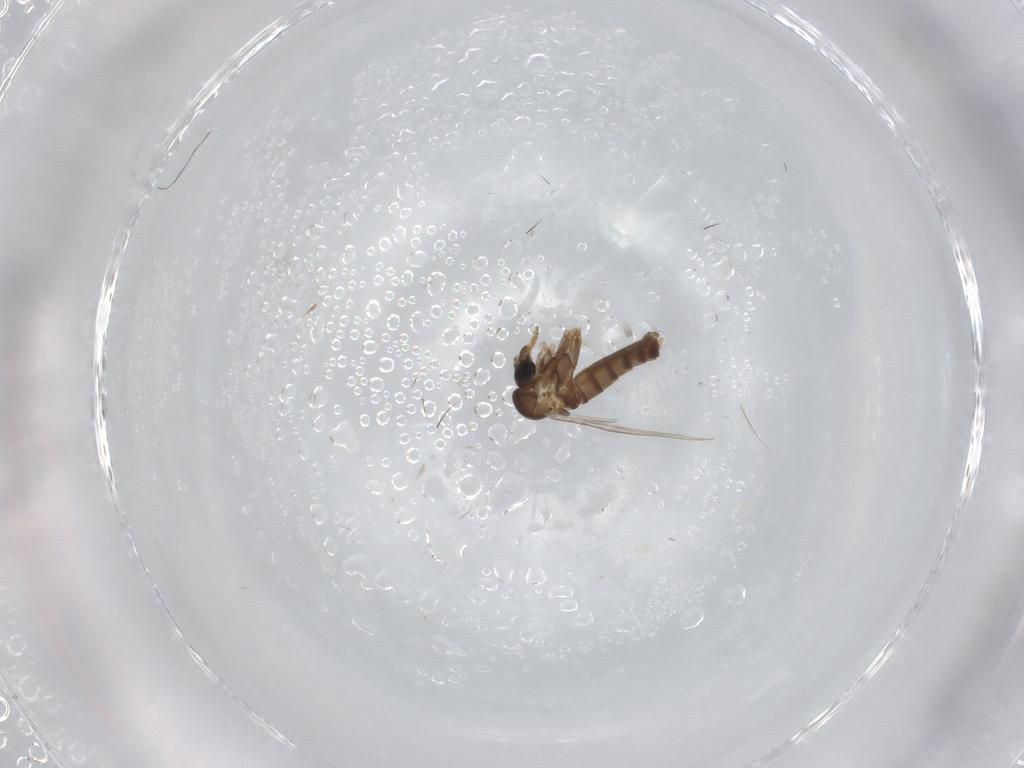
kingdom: Animalia
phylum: Arthropoda
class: Insecta
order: Diptera
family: Psychodidae
